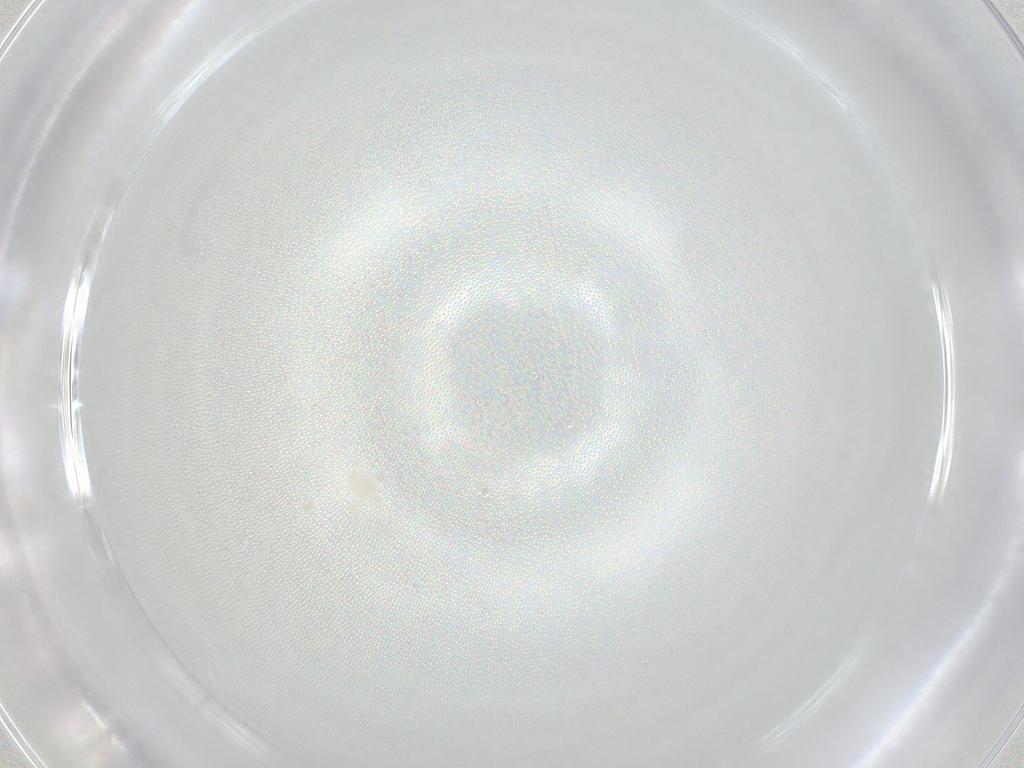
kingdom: Animalia
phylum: Arthropoda
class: Arachnida
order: Trombidiformes
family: Microtrombidiidae
